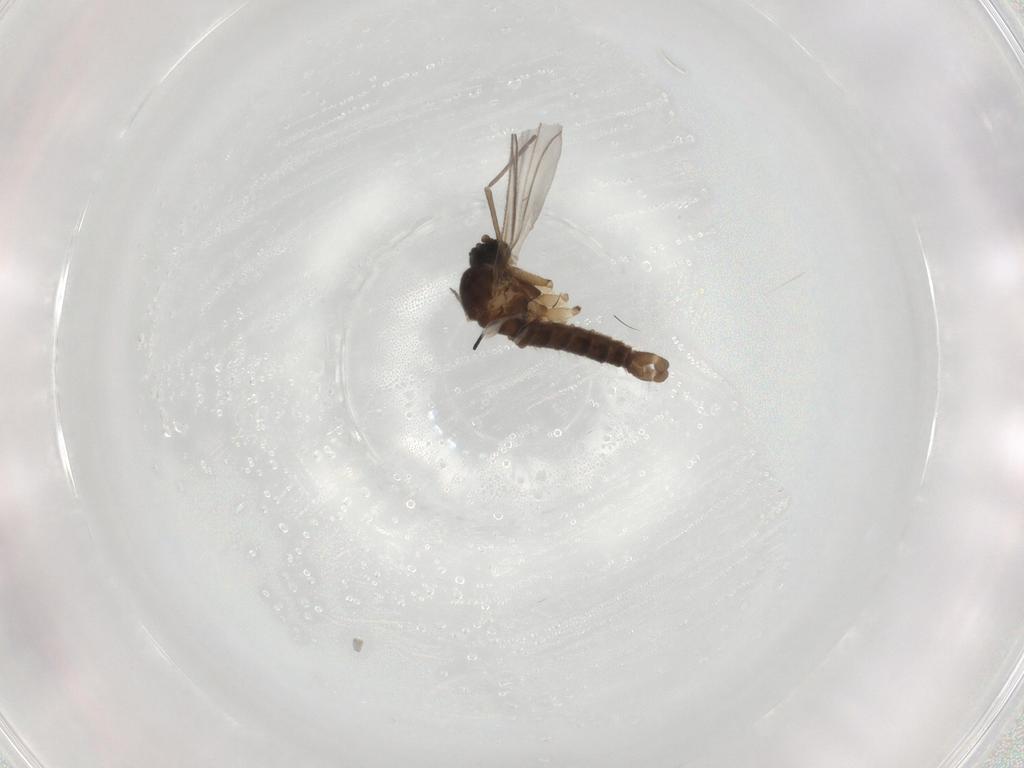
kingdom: Animalia
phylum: Arthropoda
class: Insecta
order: Diptera
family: Sciaridae
